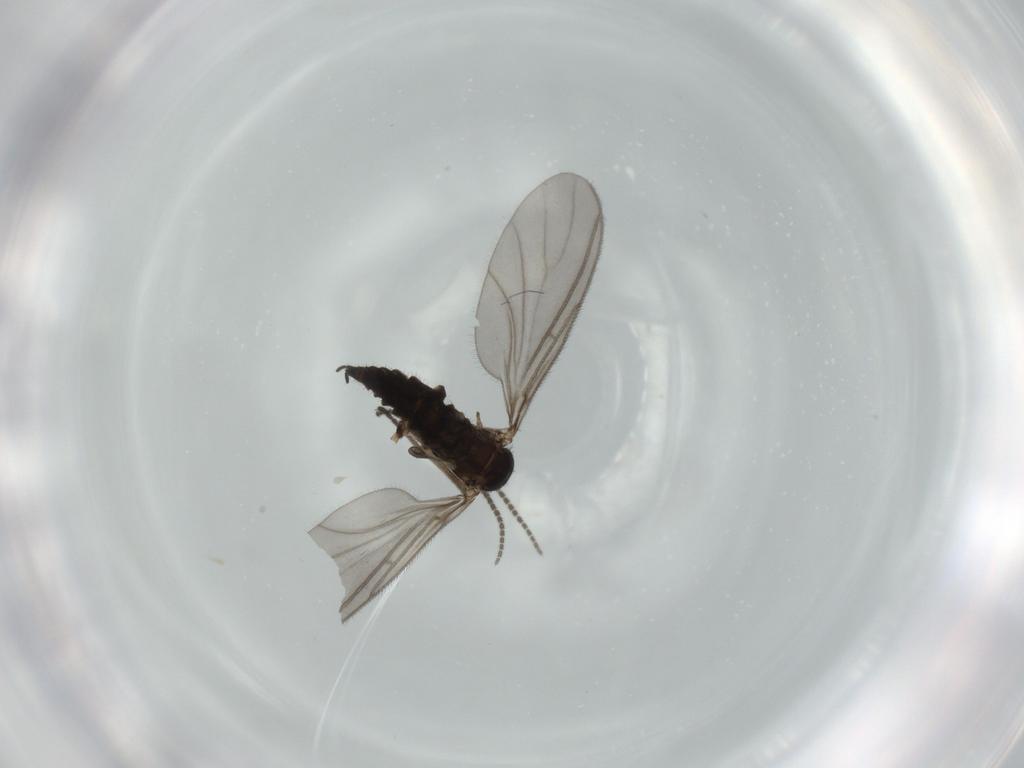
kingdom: Animalia
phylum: Arthropoda
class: Insecta
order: Diptera
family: Sciaridae
